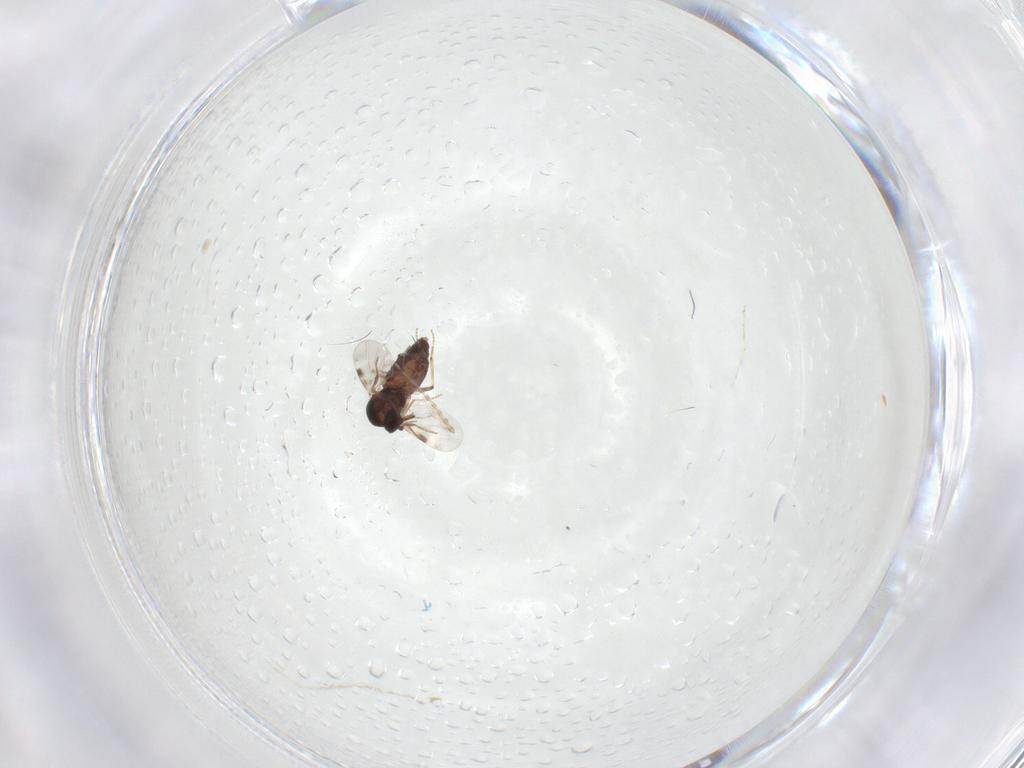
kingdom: Animalia
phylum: Arthropoda
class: Insecta
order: Diptera
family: Psychodidae
